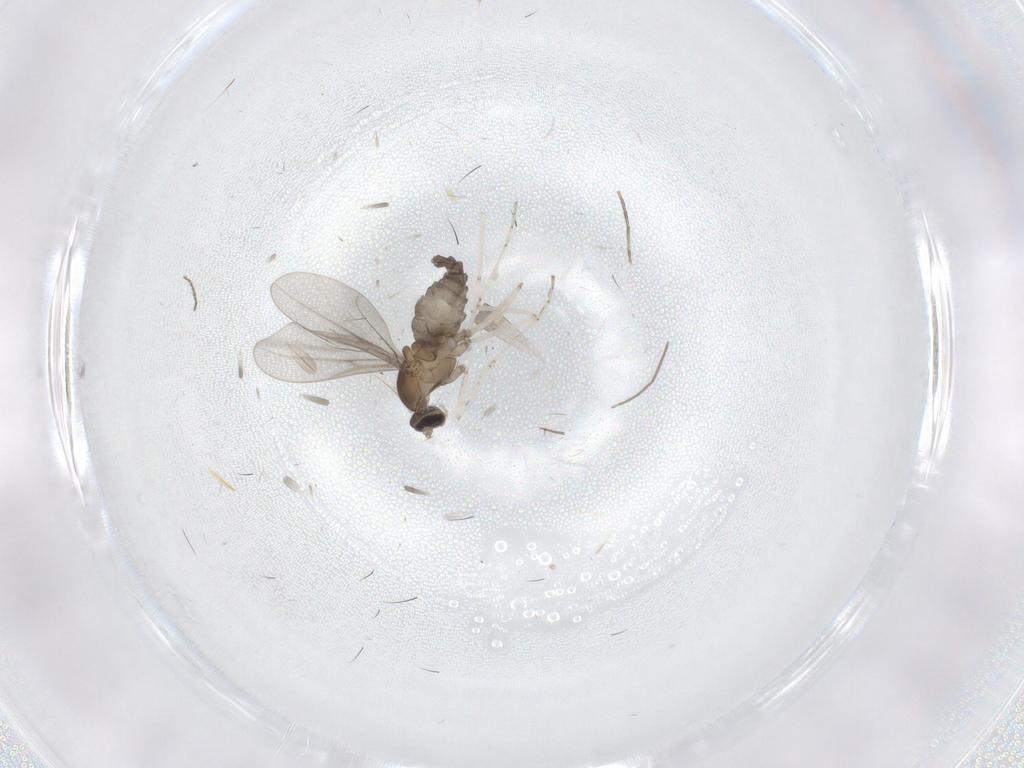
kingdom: Animalia
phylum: Arthropoda
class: Insecta
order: Diptera
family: Cecidomyiidae
